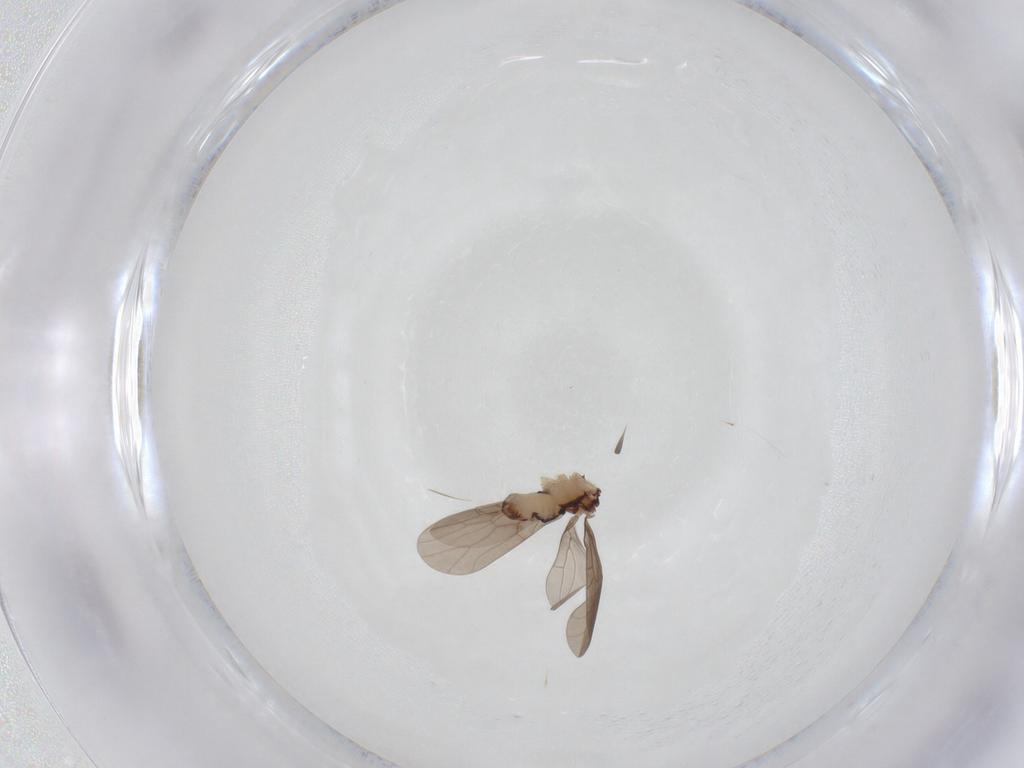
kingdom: Animalia
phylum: Arthropoda
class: Insecta
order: Psocodea
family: Lepidopsocidae
